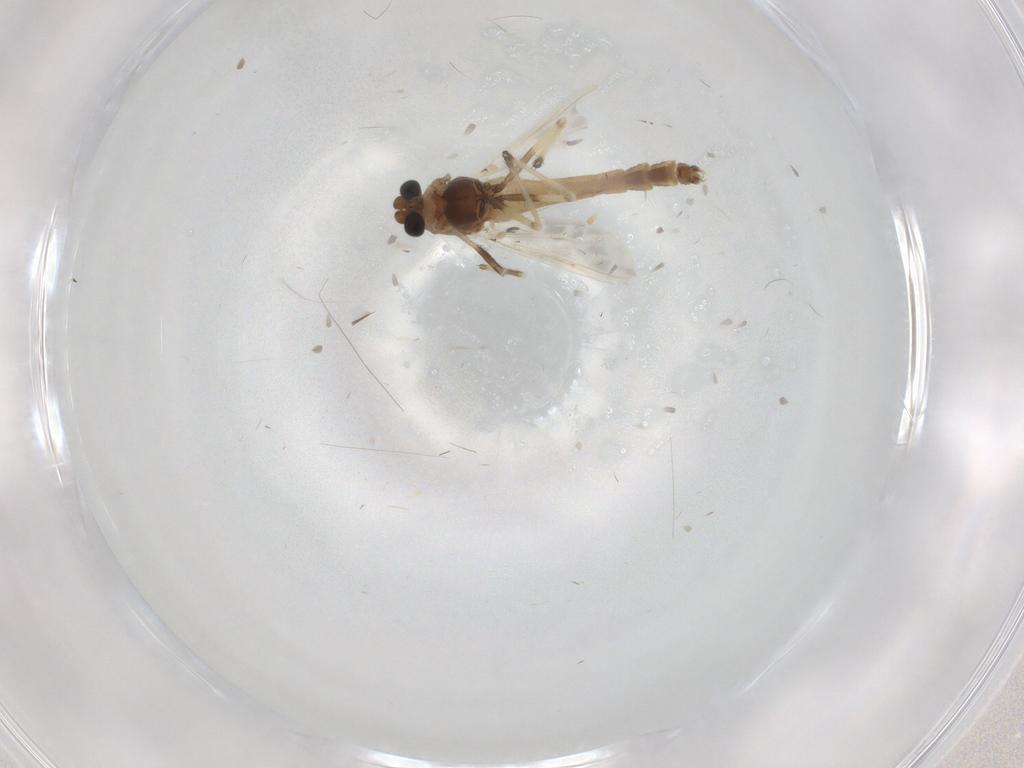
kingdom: Animalia
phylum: Arthropoda
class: Insecta
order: Diptera
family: Chironomidae
